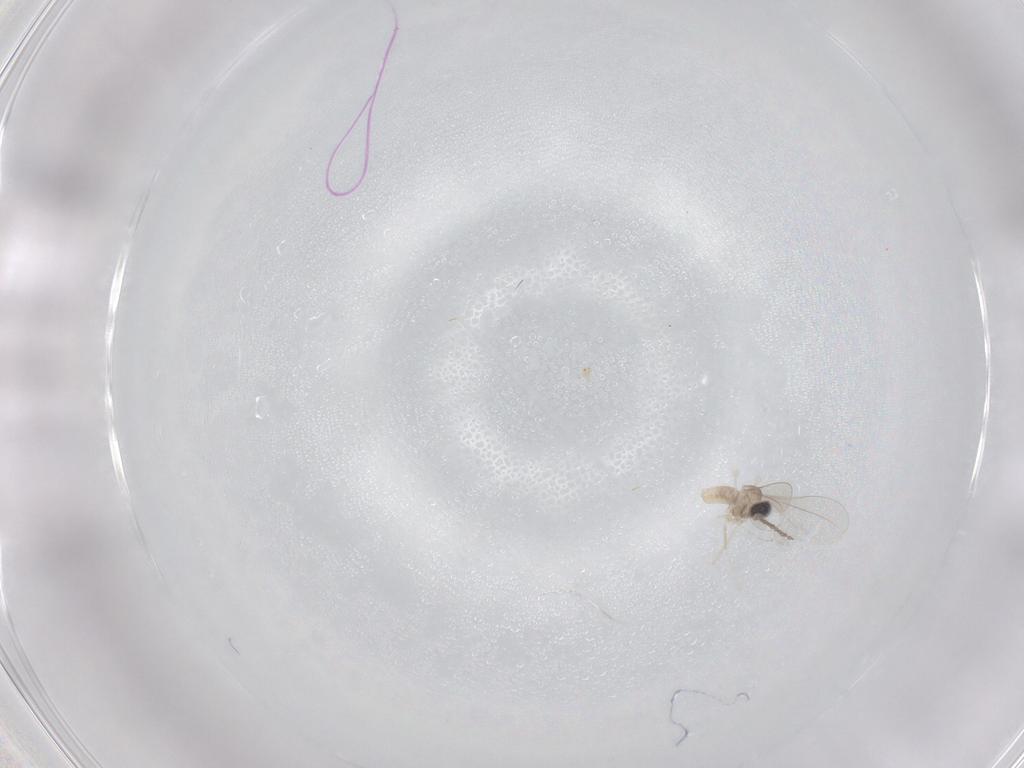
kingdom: Animalia
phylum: Arthropoda
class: Insecta
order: Diptera
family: Cecidomyiidae
